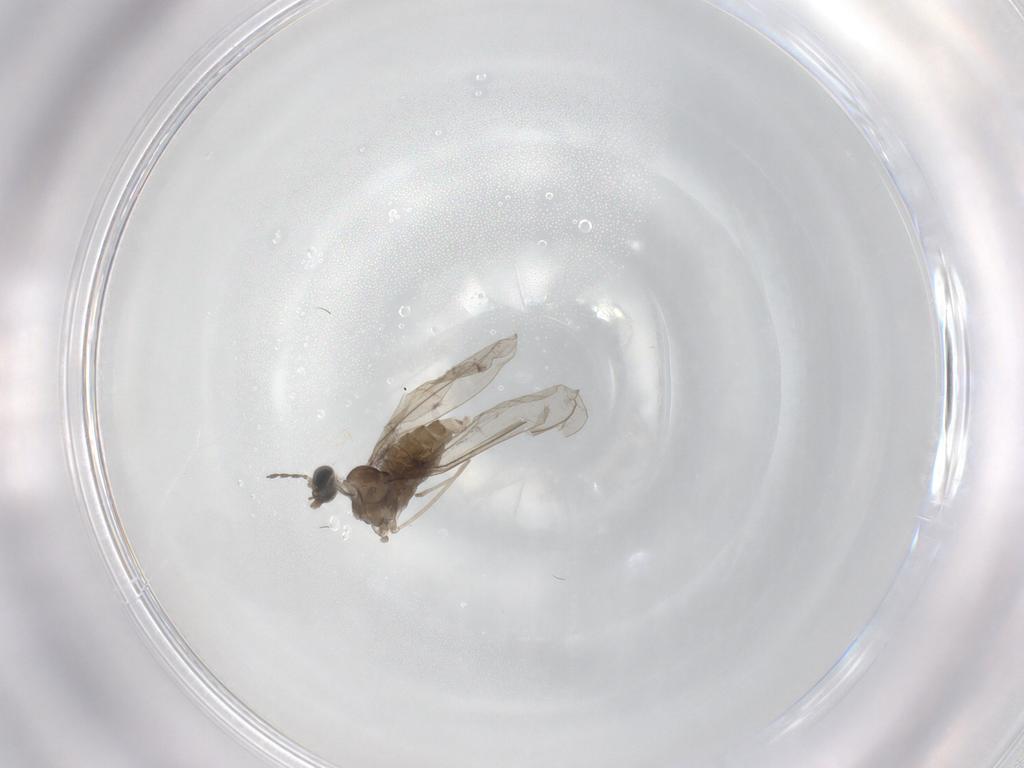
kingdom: Animalia
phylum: Arthropoda
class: Insecta
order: Diptera
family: Cecidomyiidae
